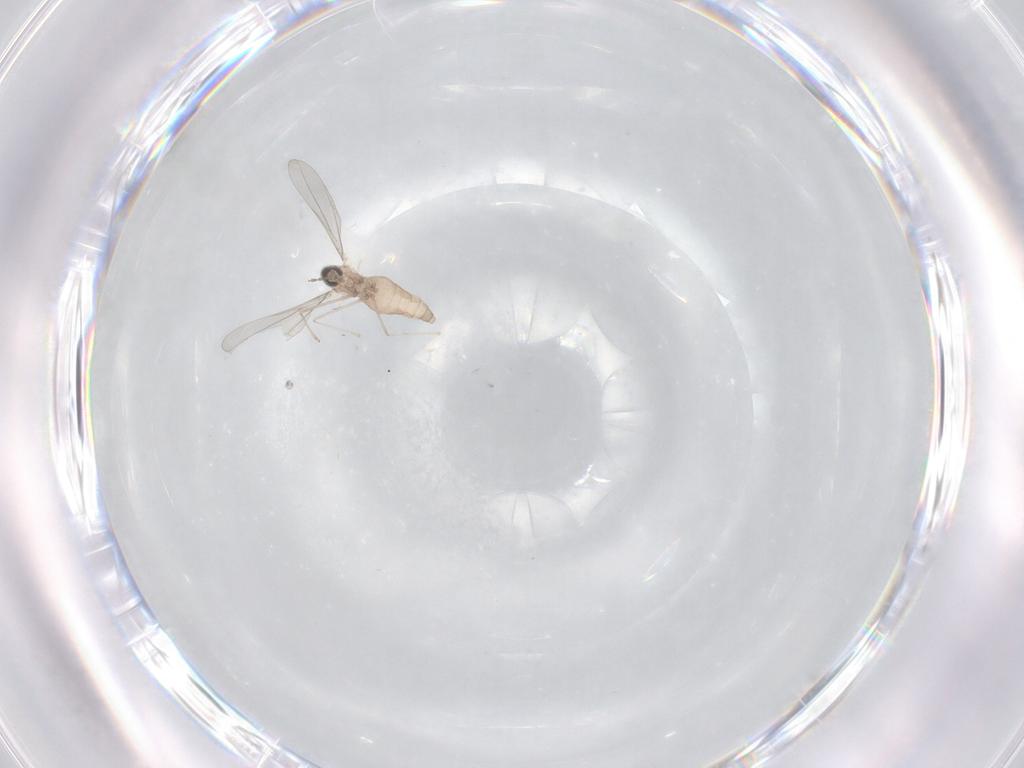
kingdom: Animalia
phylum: Arthropoda
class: Insecta
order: Diptera
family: Cecidomyiidae
